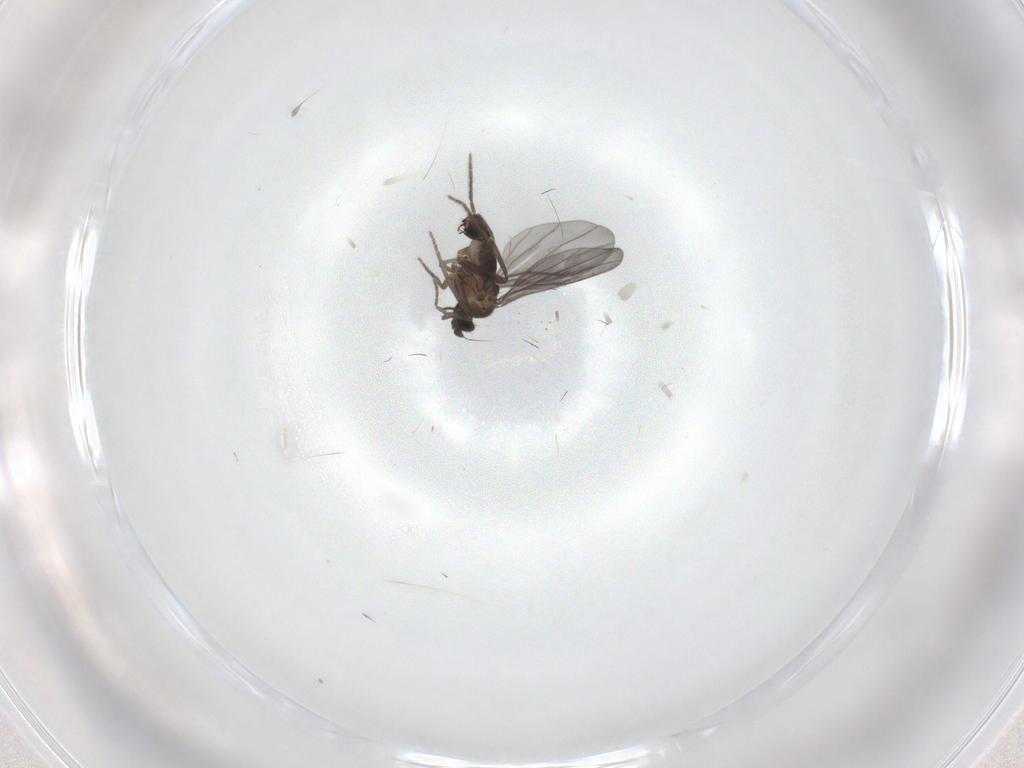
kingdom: Animalia
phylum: Arthropoda
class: Insecta
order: Diptera
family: Phoridae
